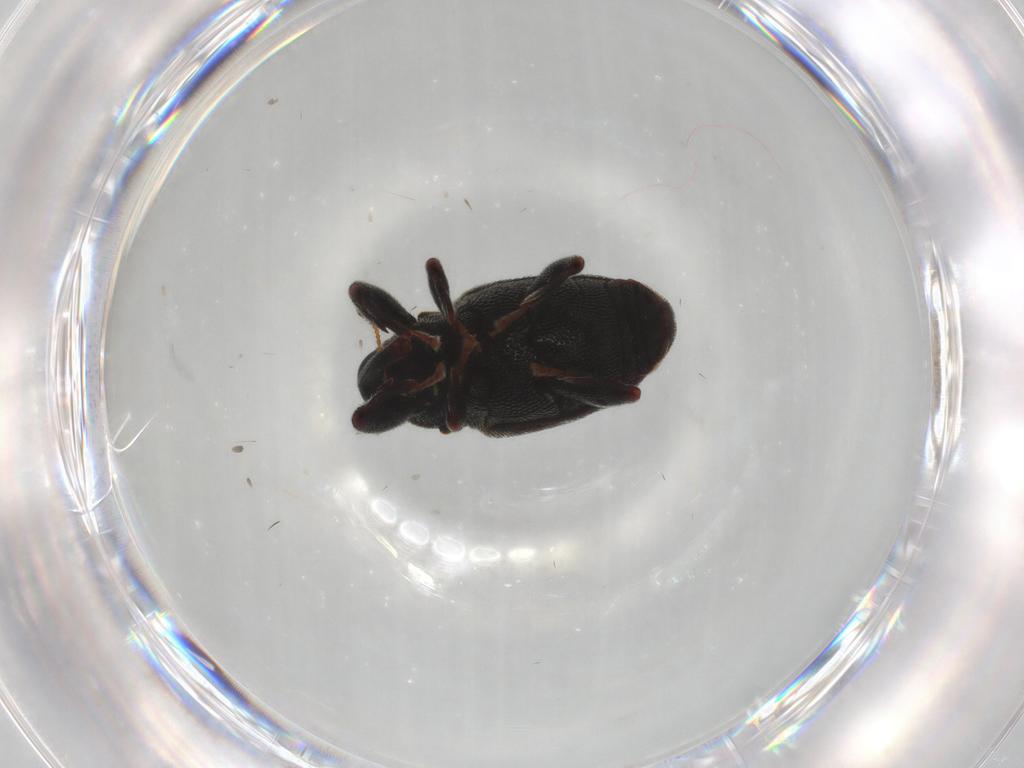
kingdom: Animalia
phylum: Arthropoda
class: Insecta
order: Coleoptera
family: Curculionidae
